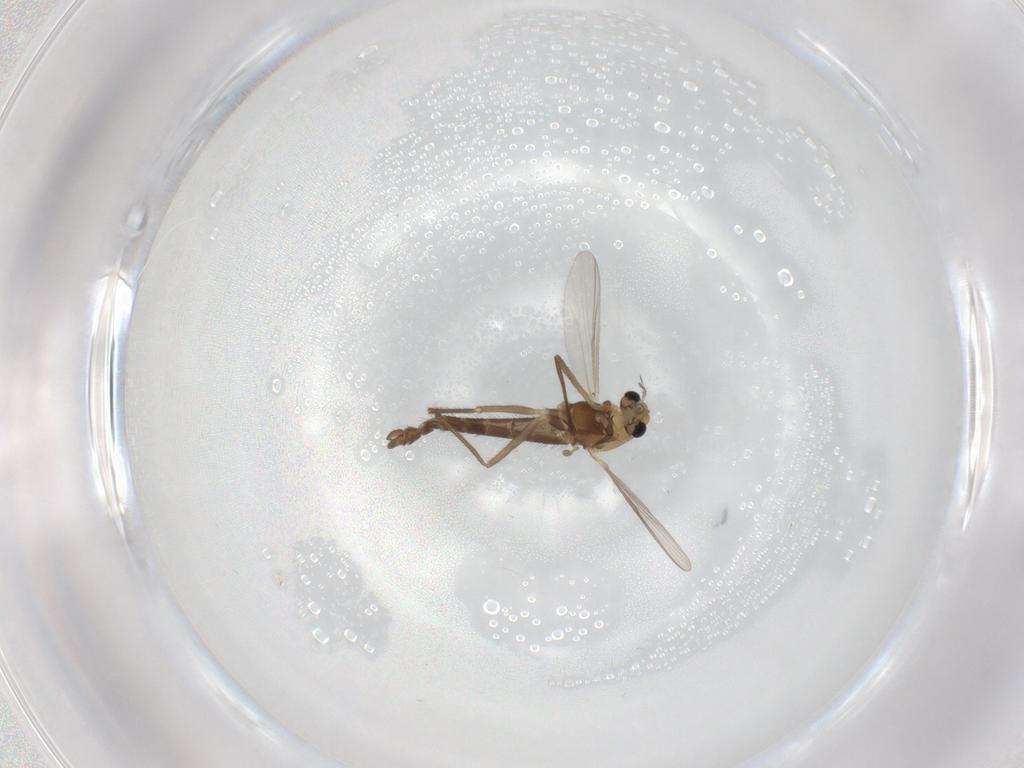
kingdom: Animalia
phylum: Arthropoda
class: Insecta
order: Diptera
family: Chironomidae
